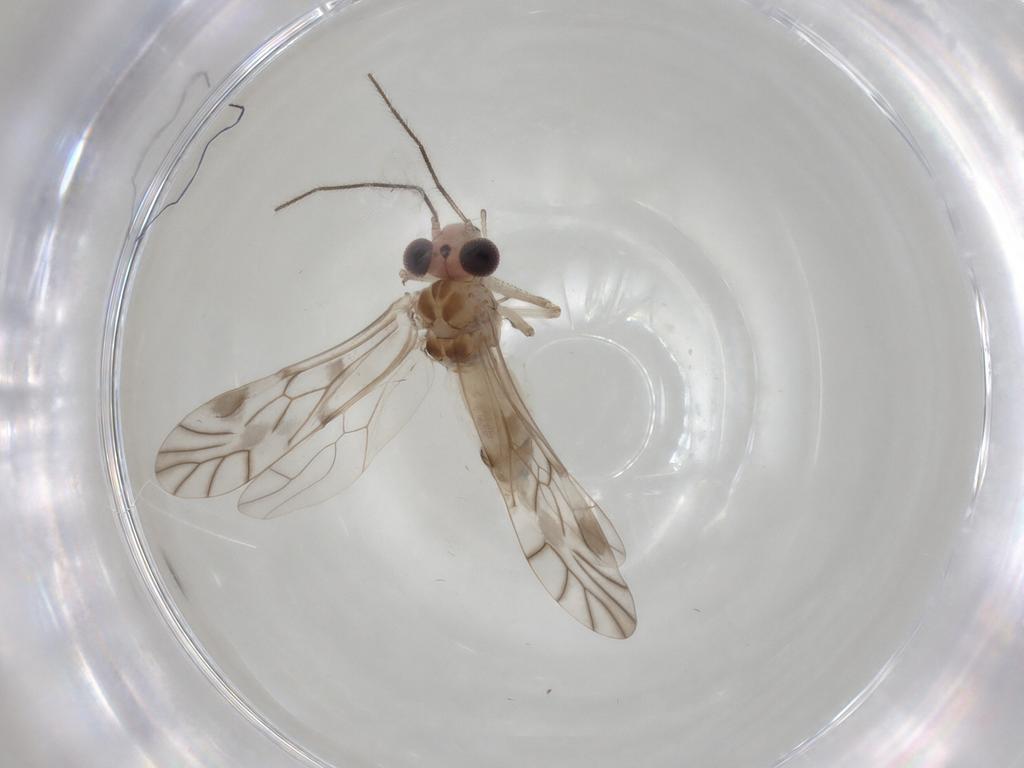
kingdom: Animalia
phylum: Arthropoda
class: Insecta
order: Psocodea
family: Myopsocidae
